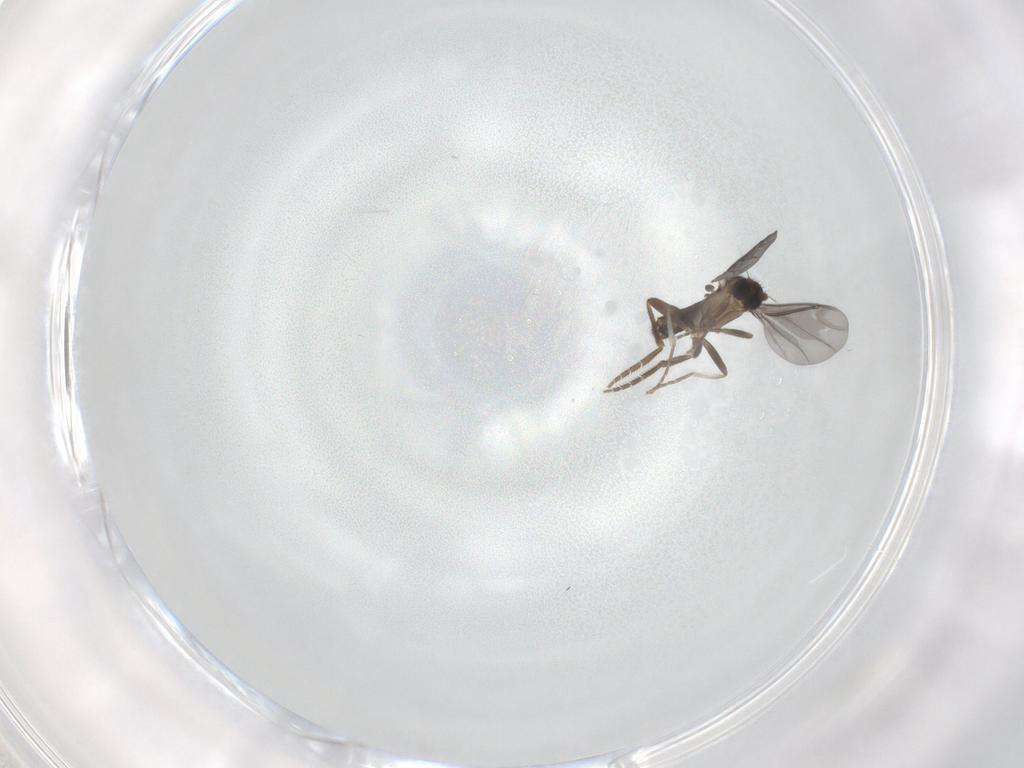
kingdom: Animalia
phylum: Arthropoda
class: Insecta
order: Diptera
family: Phoridae
